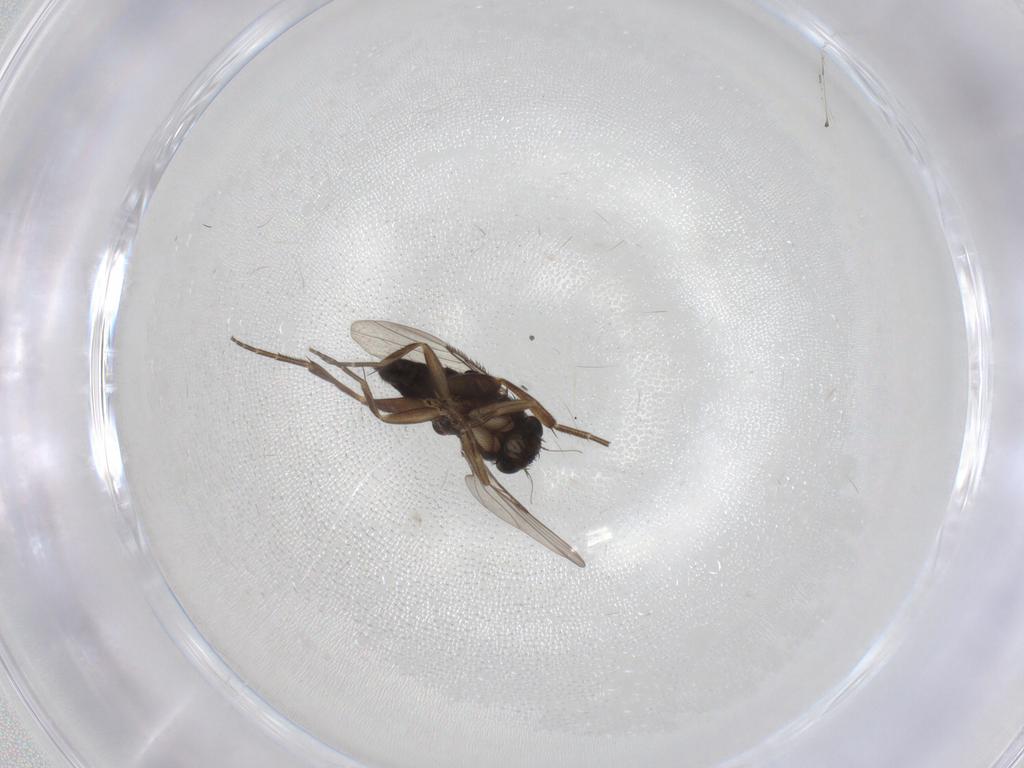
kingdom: Animalia
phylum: Arthropoda
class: Insecta
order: Diptera
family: Phoridae
